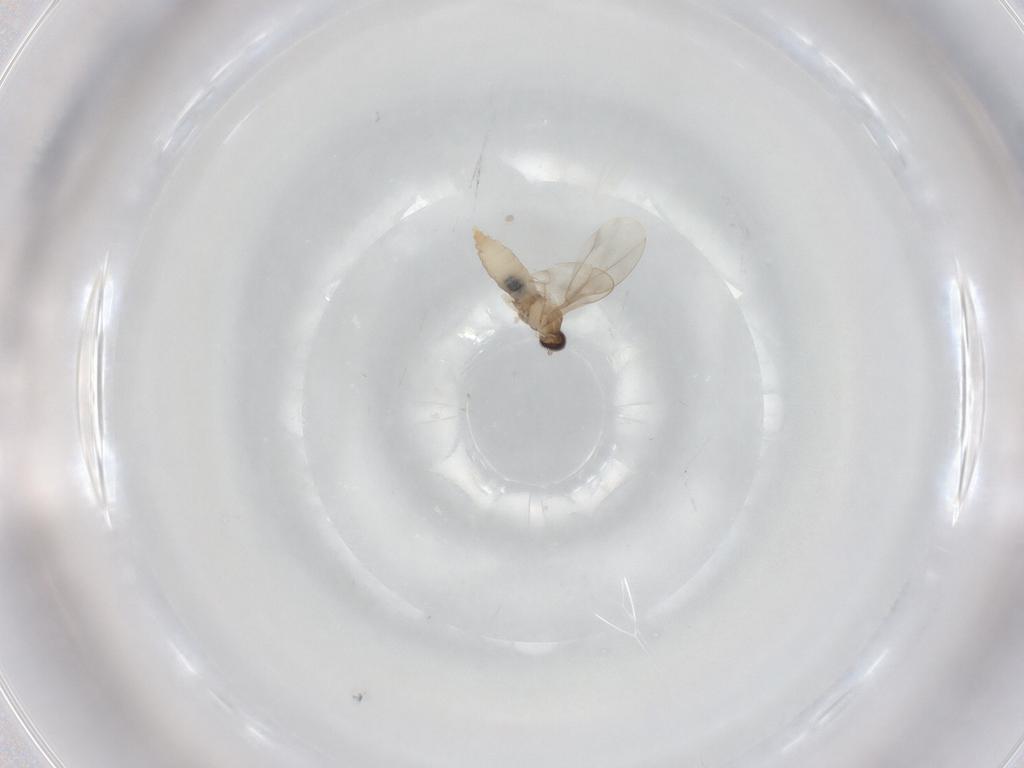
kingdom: Animalia
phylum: Arthropoda
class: Insecta
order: Diptera
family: Cecidomyiidae
